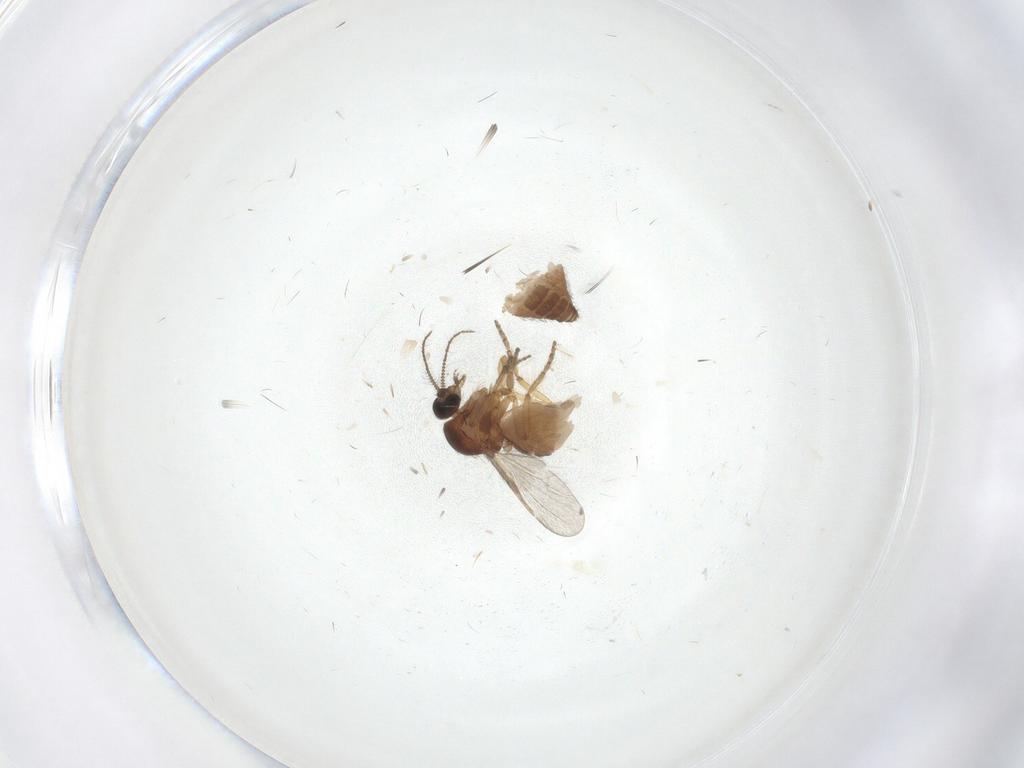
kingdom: Animalia
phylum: Arthropoda
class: Insecta
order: Diptera
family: Ceratopogonidae
